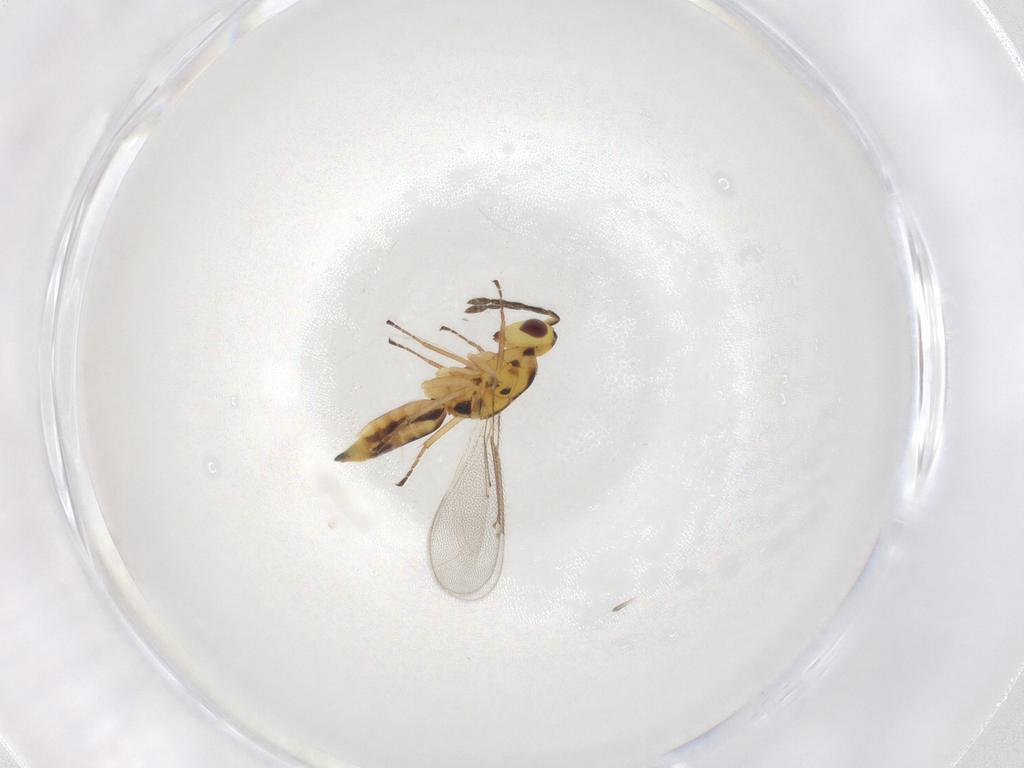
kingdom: Animalia
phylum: Arthropoda
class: Insecta
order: Hymenoptera
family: Eulophidae
